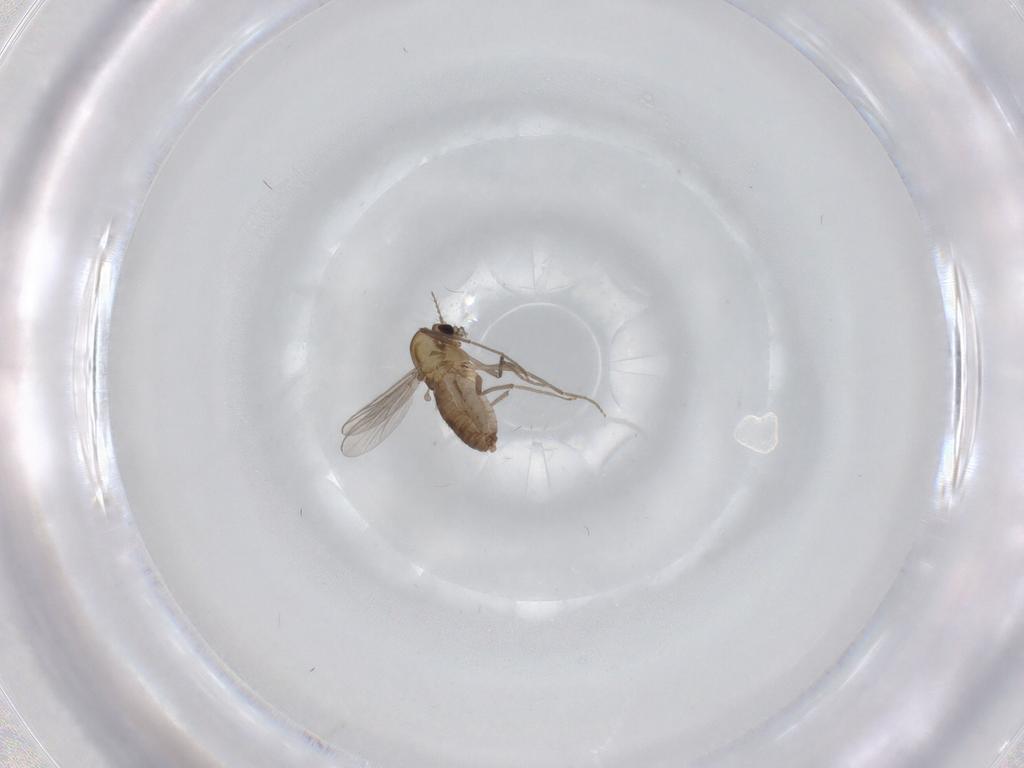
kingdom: Animalia
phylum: Arthropoda
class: Insecta
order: Diptera
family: Chironomidae
